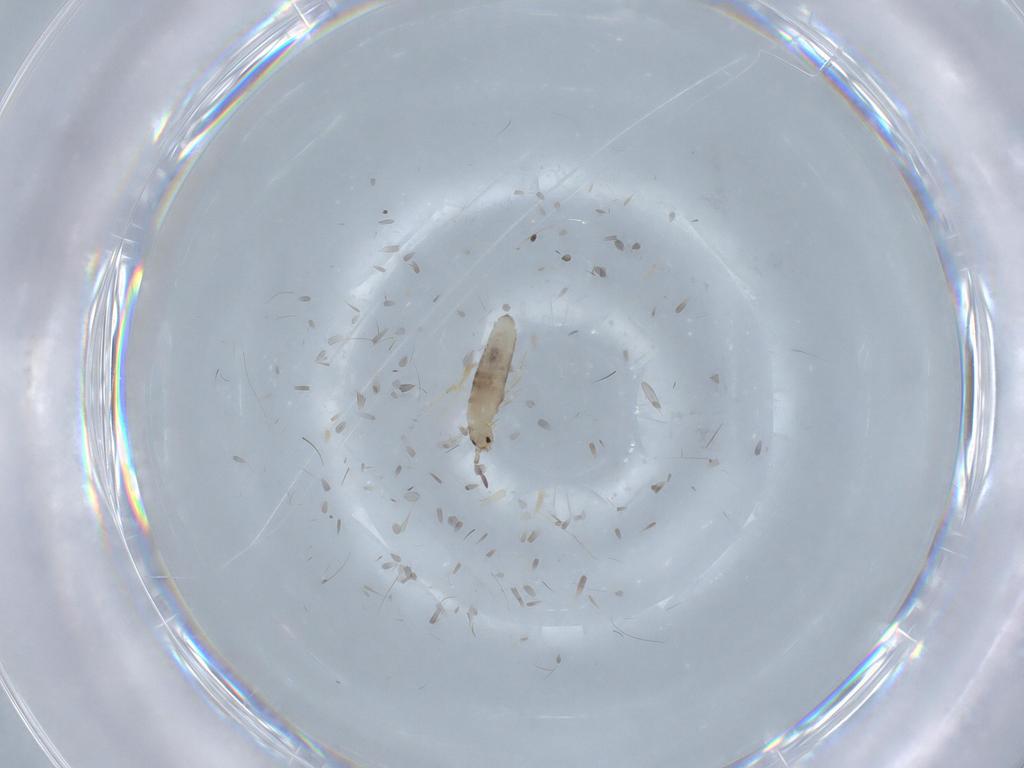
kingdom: Animalia
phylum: Arthropoda
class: Collembola
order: Entomobryomorpha
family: Entomobryidae
